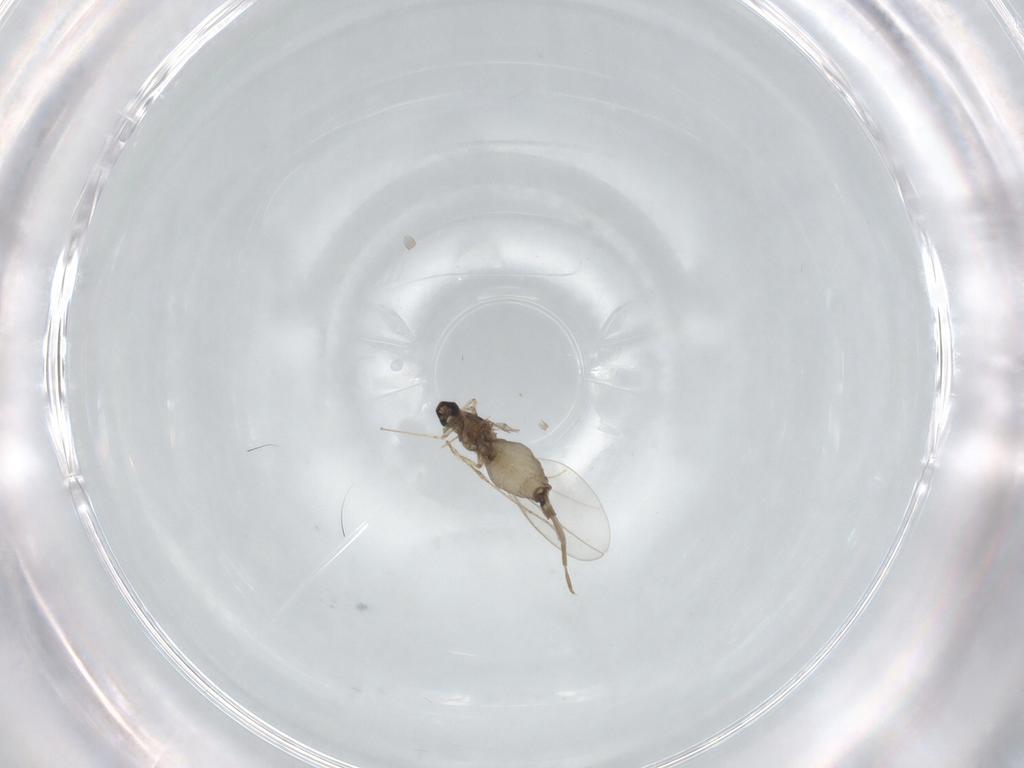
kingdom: Animalia
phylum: Arthropoda
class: Insecta
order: Diptera
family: Cecidomyiidae
